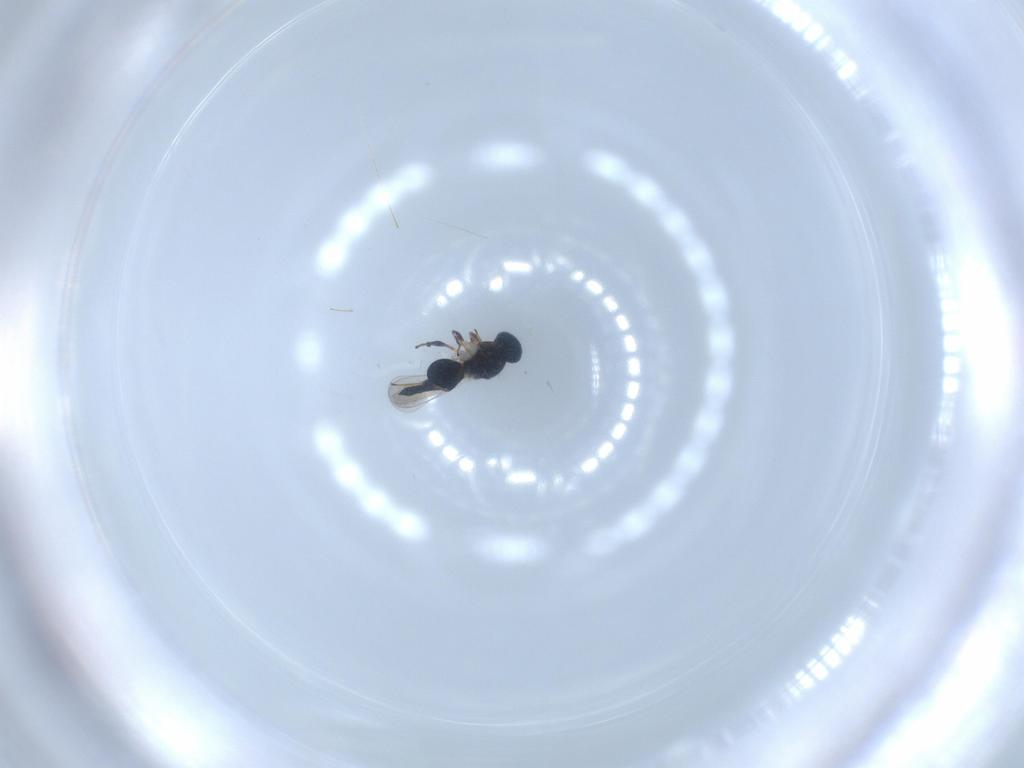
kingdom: Animalia
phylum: Arthropoda
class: Insecta
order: Hymenoptera
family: Platygastridae
